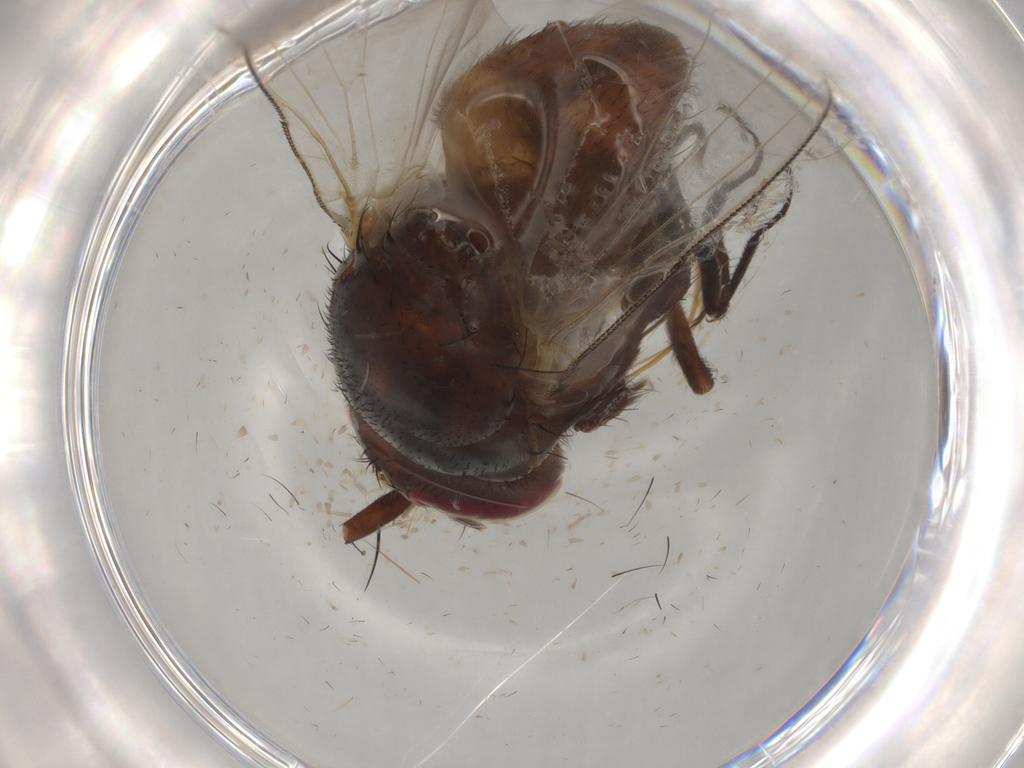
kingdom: Animalia
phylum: Arthropoda
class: Insecta
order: Diptera
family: Ulidiidae
